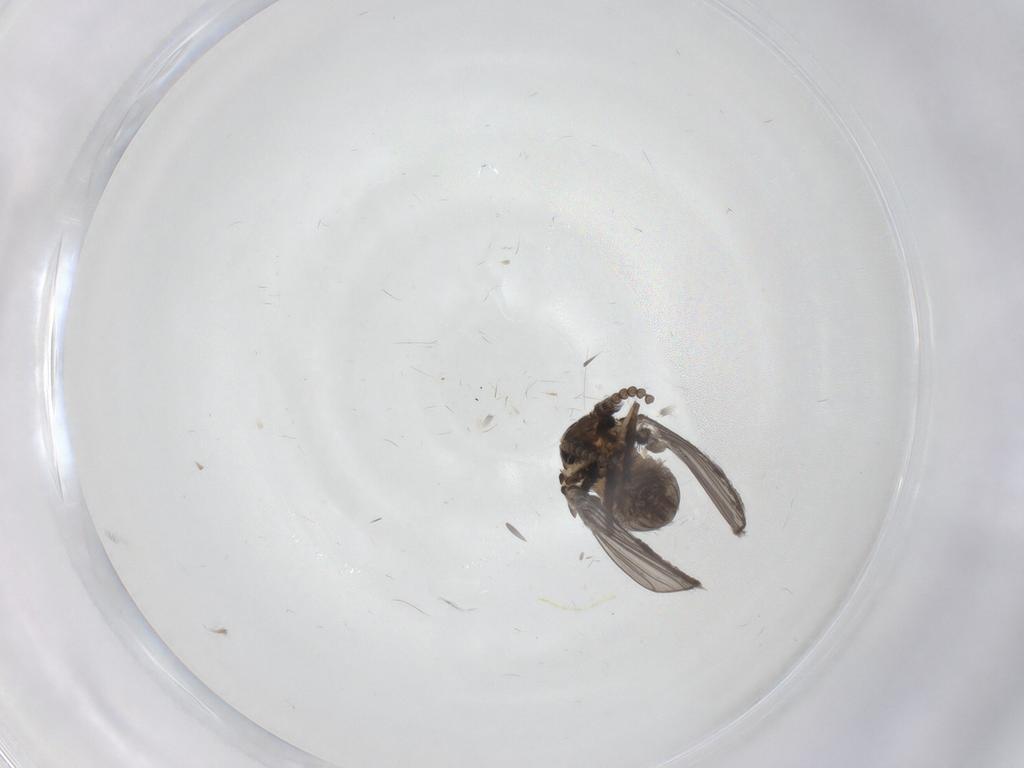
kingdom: Animalia
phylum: Arthropoda
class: Insecta
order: Diptera
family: Psychodidae
